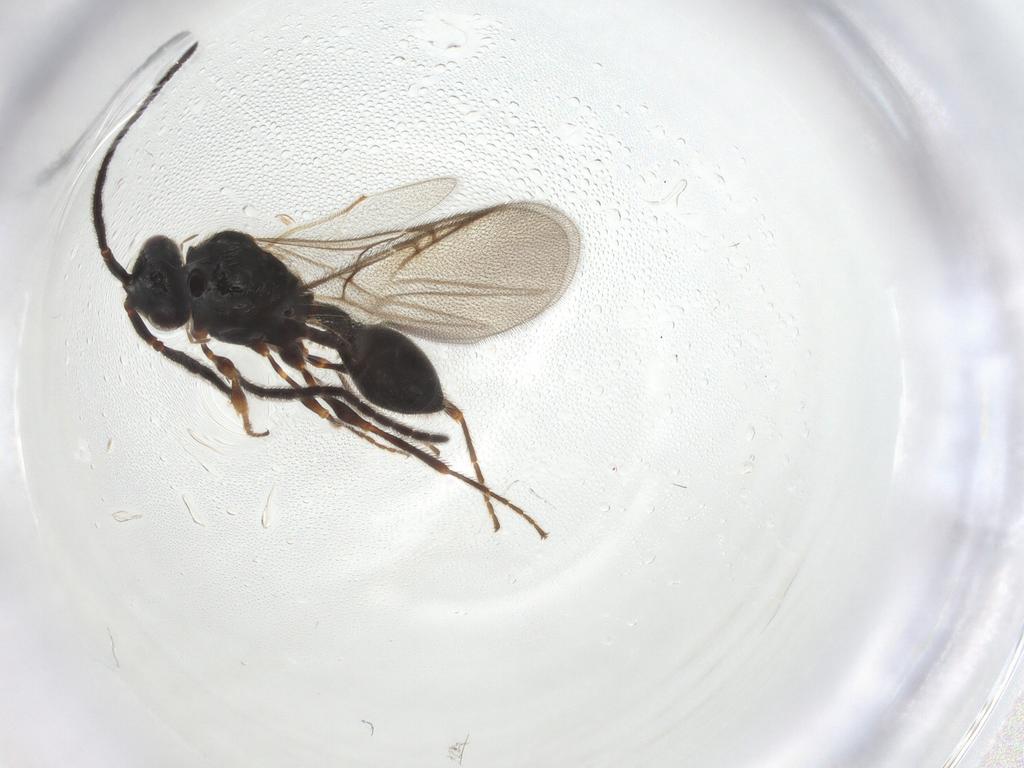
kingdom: Animalia
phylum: Arthropoda
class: Insecta
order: Hymenoptera
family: Diapriidae
